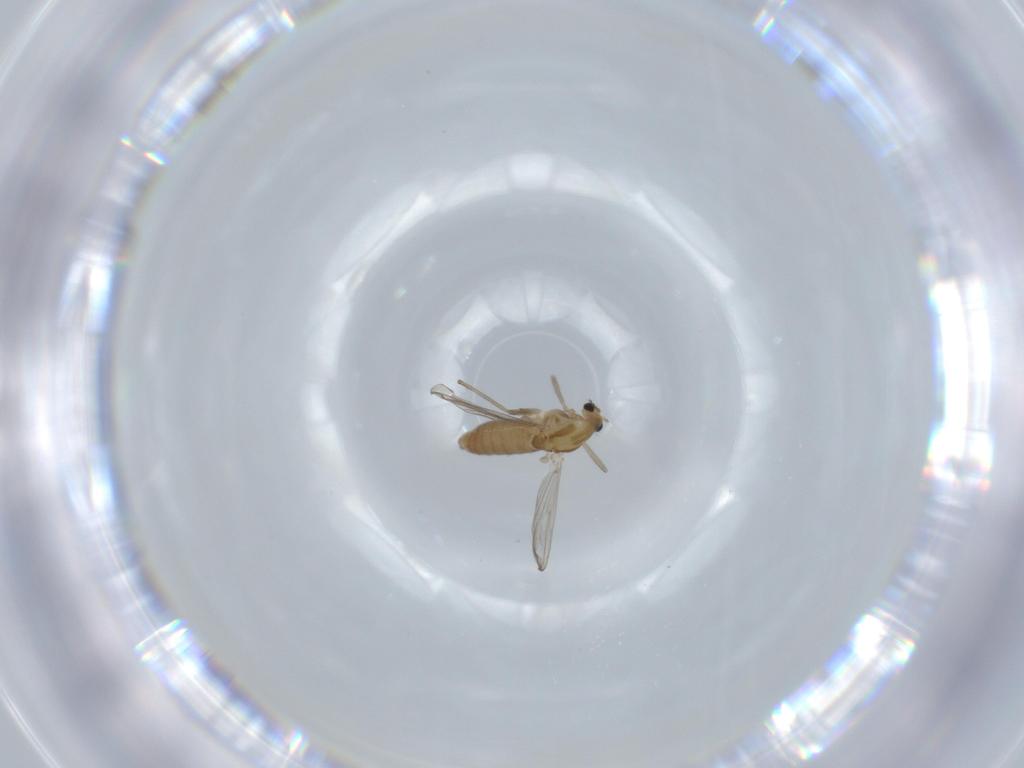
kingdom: Animalia
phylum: Arthropoda
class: Insecta
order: Diptera
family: Chironomidae
